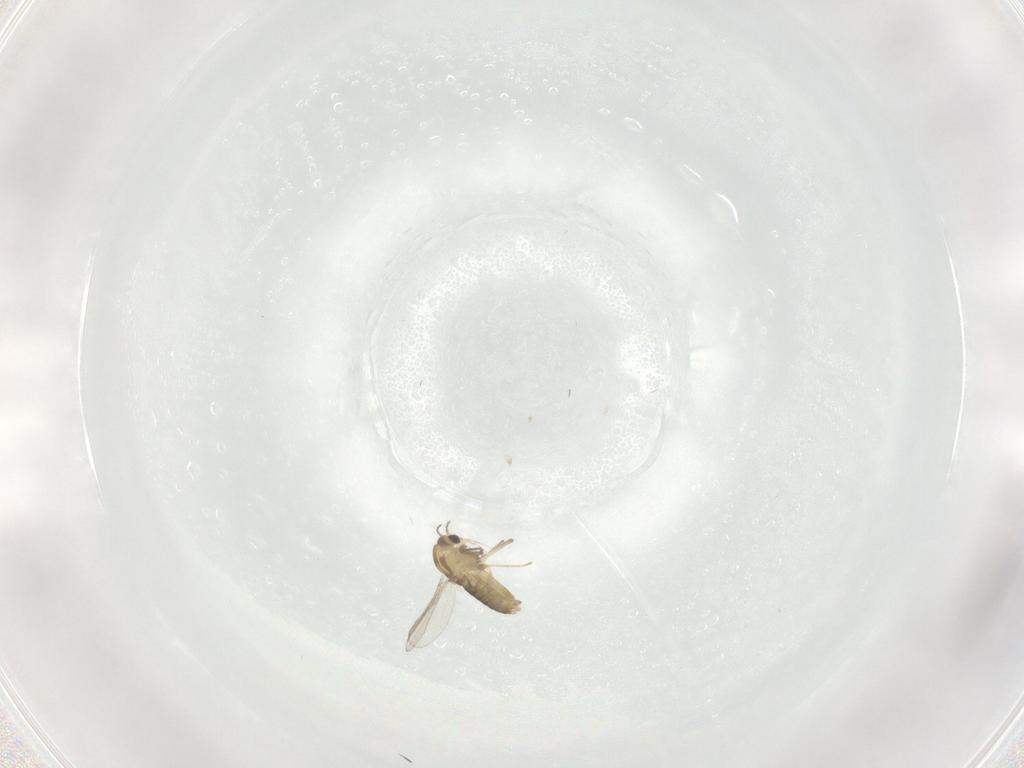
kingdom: Animalia
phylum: Arthropoda
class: Insecta
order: Diptera
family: Chironomidae
